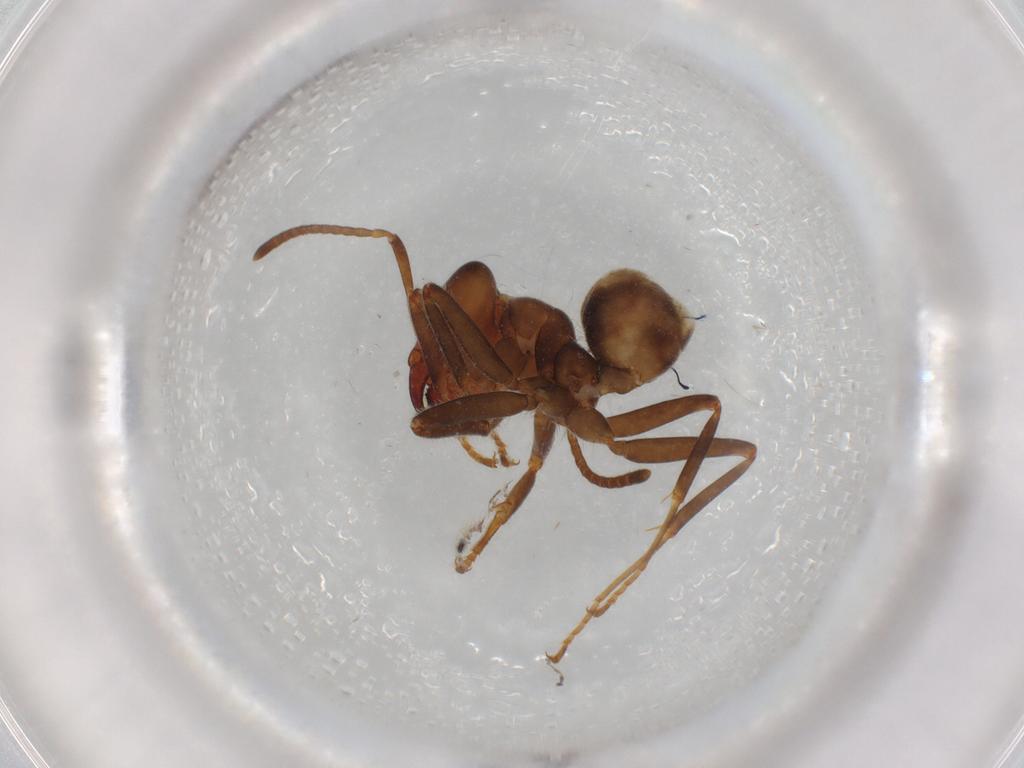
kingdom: Animalia
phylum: Arthropoda
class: Insecta
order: Hymenoptera
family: Formicidae
